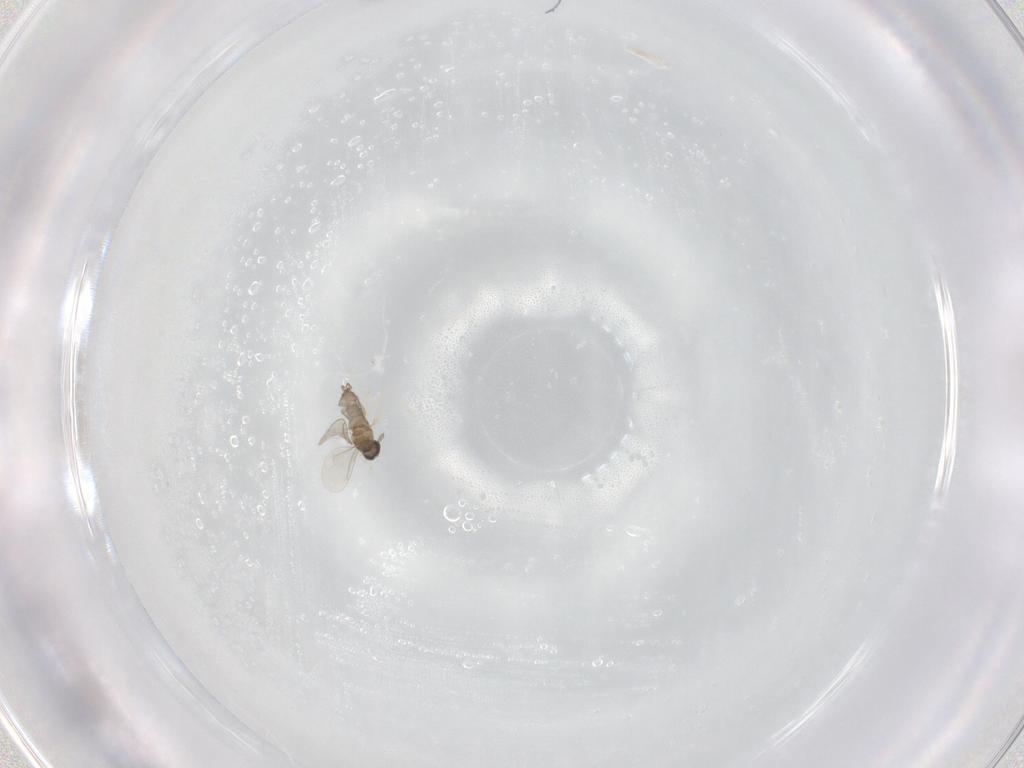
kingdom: Animalia
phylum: Arthropoda
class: Insecta
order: Diptera
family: Cecidomyiidae
